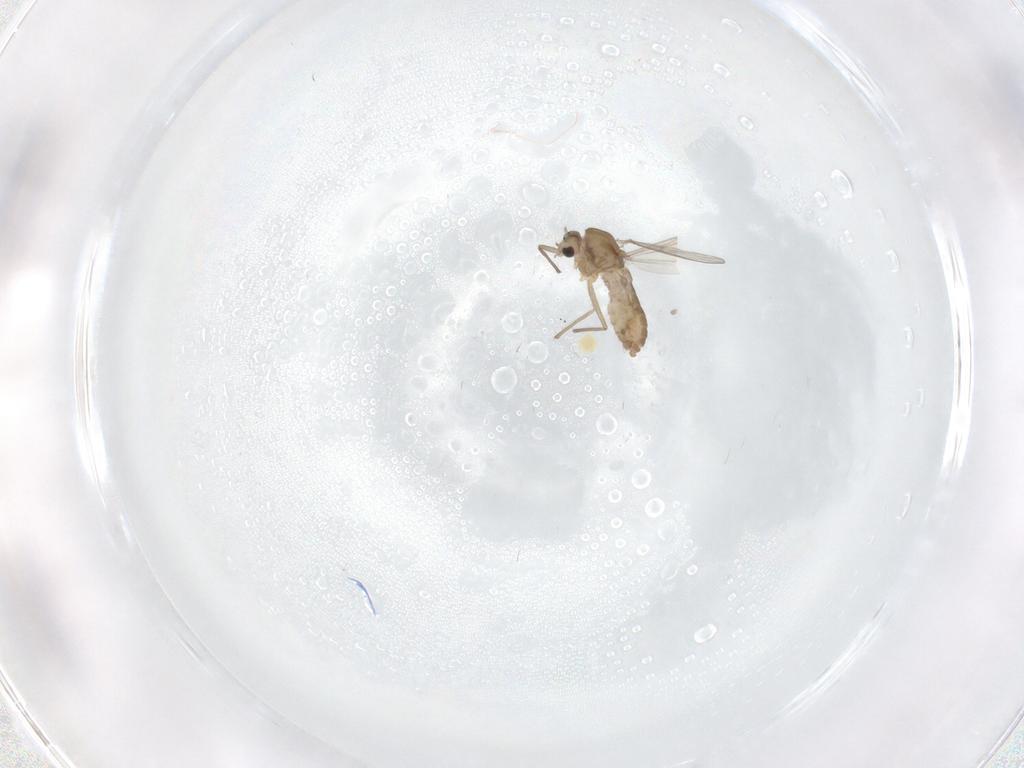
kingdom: Animalia
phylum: Arthropoda
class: Insecta
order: Diptera
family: Chironomidae
